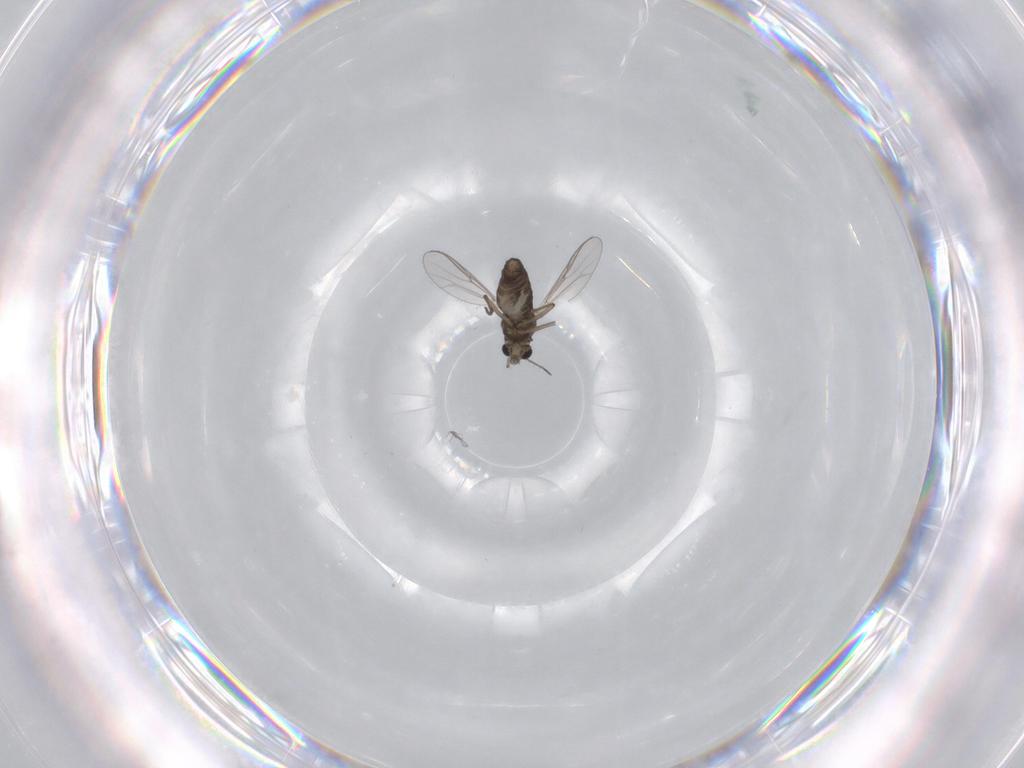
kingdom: Animalia
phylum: Arthropoda
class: Insecta
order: Diptera
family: Chironomidae
